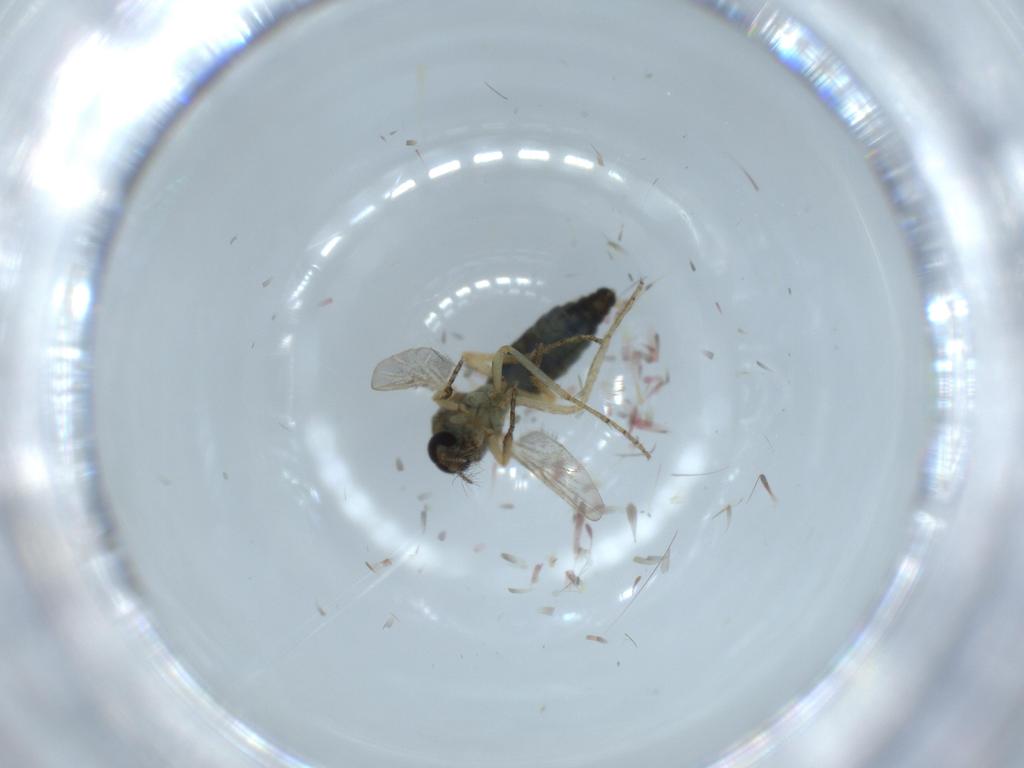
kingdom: Animalia
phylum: Arthropoda
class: Insecta
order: Diptera
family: Ceratopogonidae
